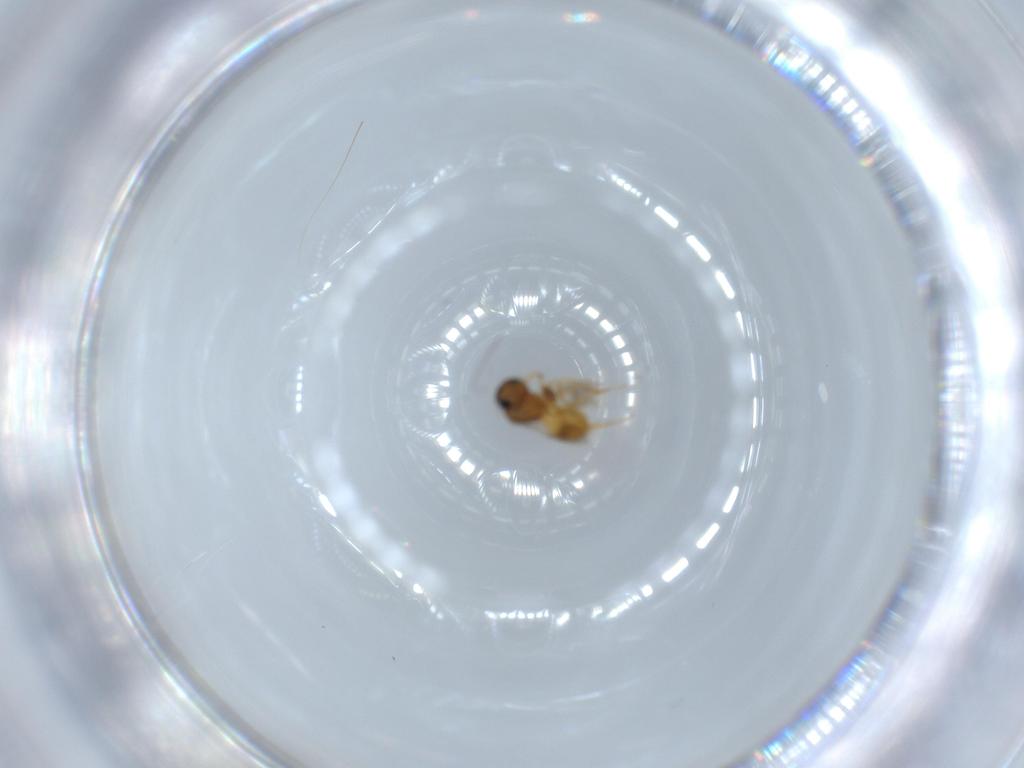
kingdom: Animalia
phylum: Arthropoda
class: Insecta
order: Hymenoptera
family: Scelionidae
